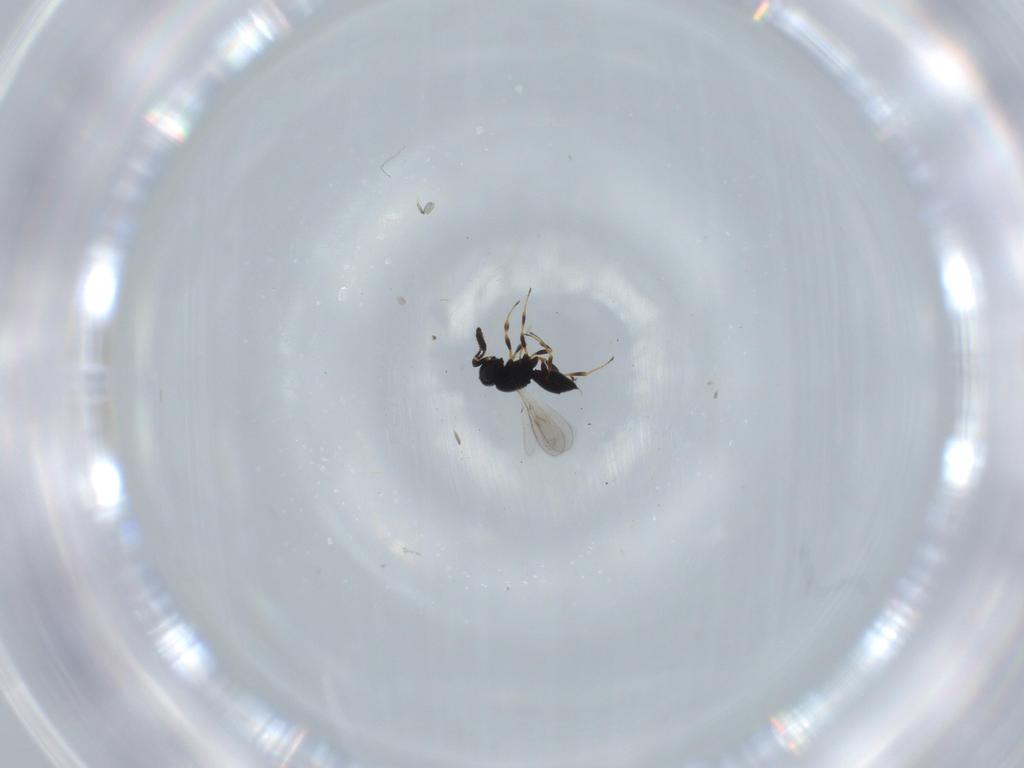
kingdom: Animalia
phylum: Arthropoda
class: Insecta
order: Hymenoptera
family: Scelionidae
